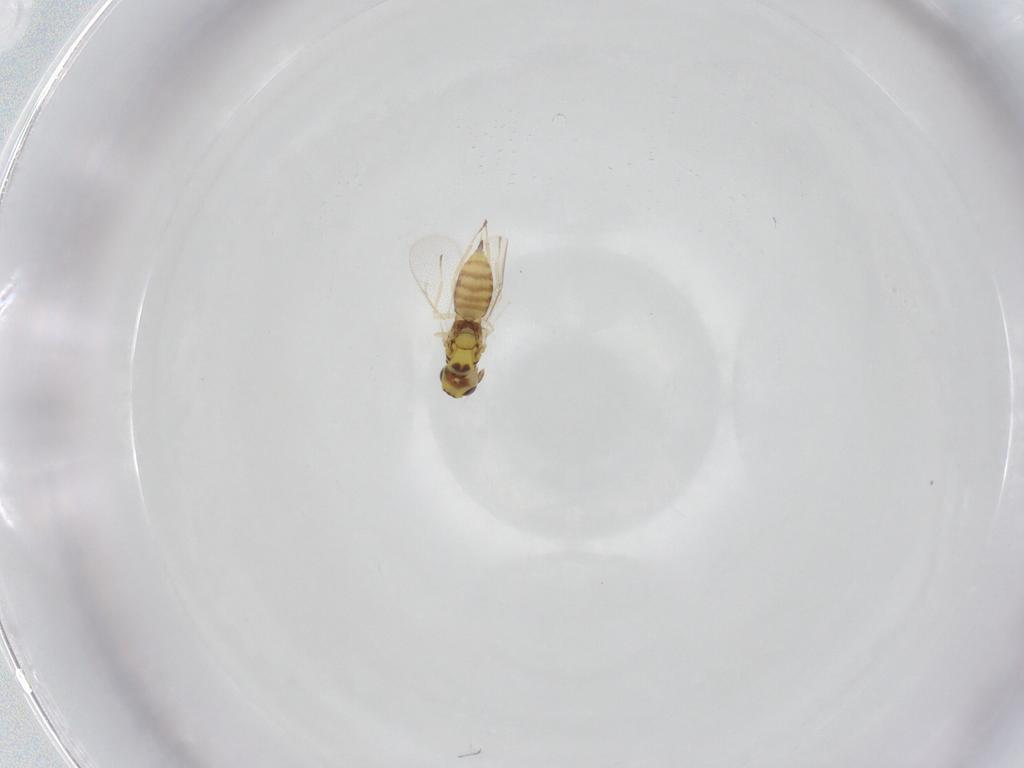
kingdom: Animalia
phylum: Arthropoda
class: Insecta
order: Hymenoptera
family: Eulophidae
